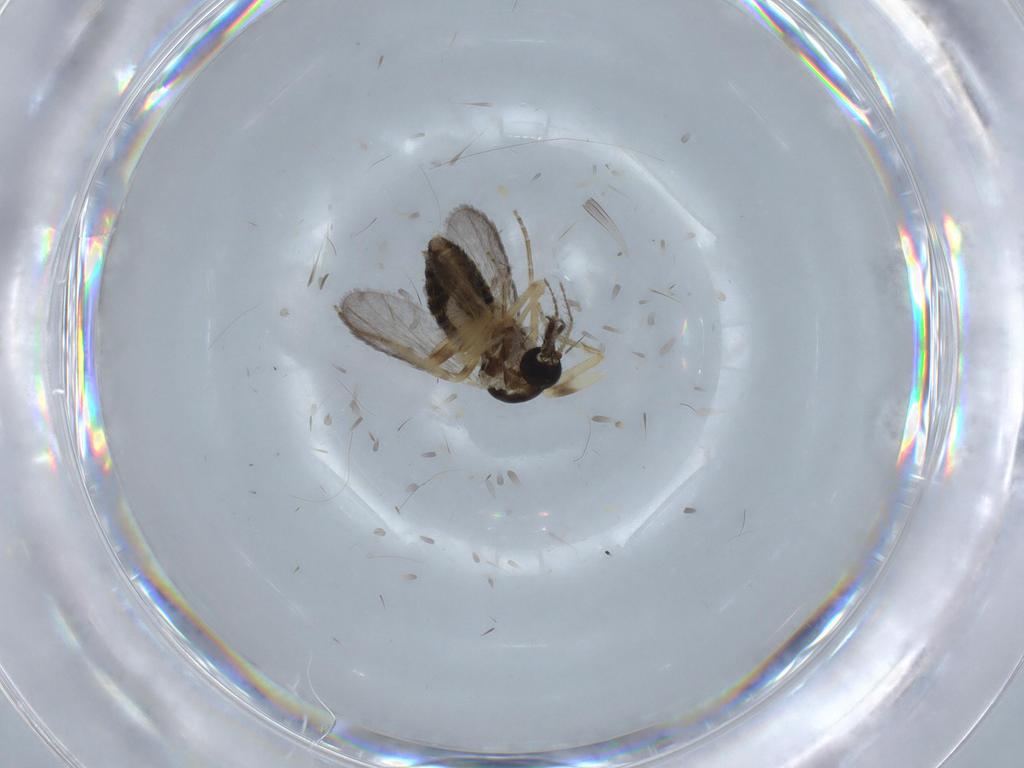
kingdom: Animalia
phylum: Arthropoda
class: Insecta
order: Diptera
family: Ceratopogonidae
